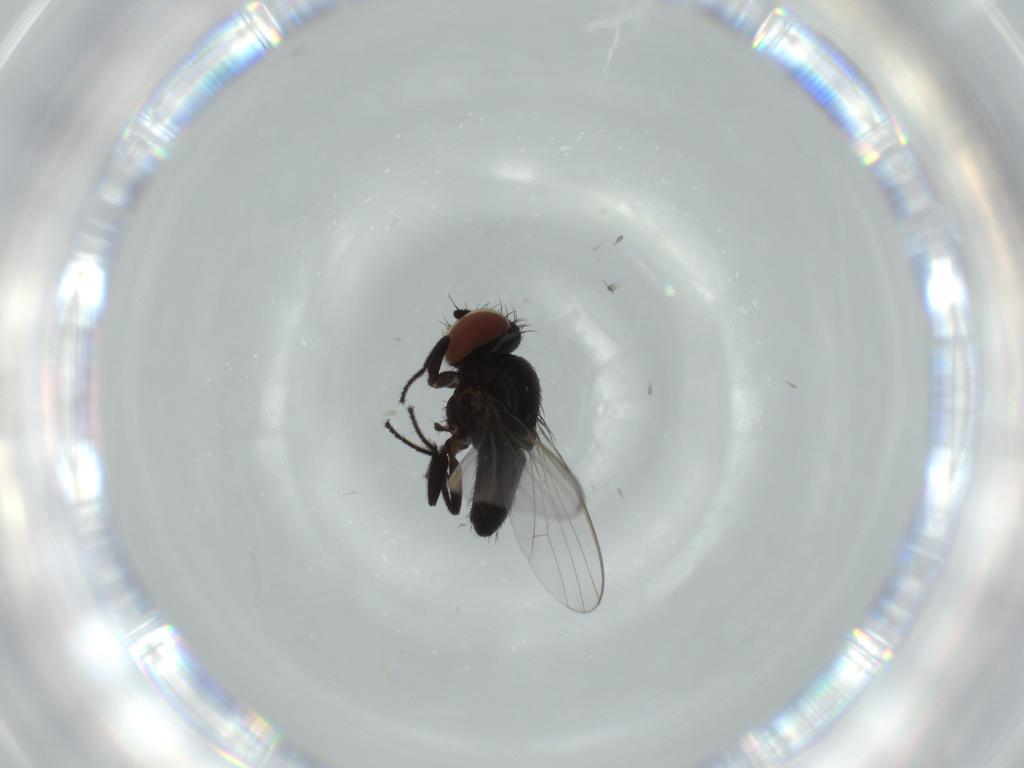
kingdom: Animalia
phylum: Arthropoda
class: Insecta
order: Diptera
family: Milichiidae
